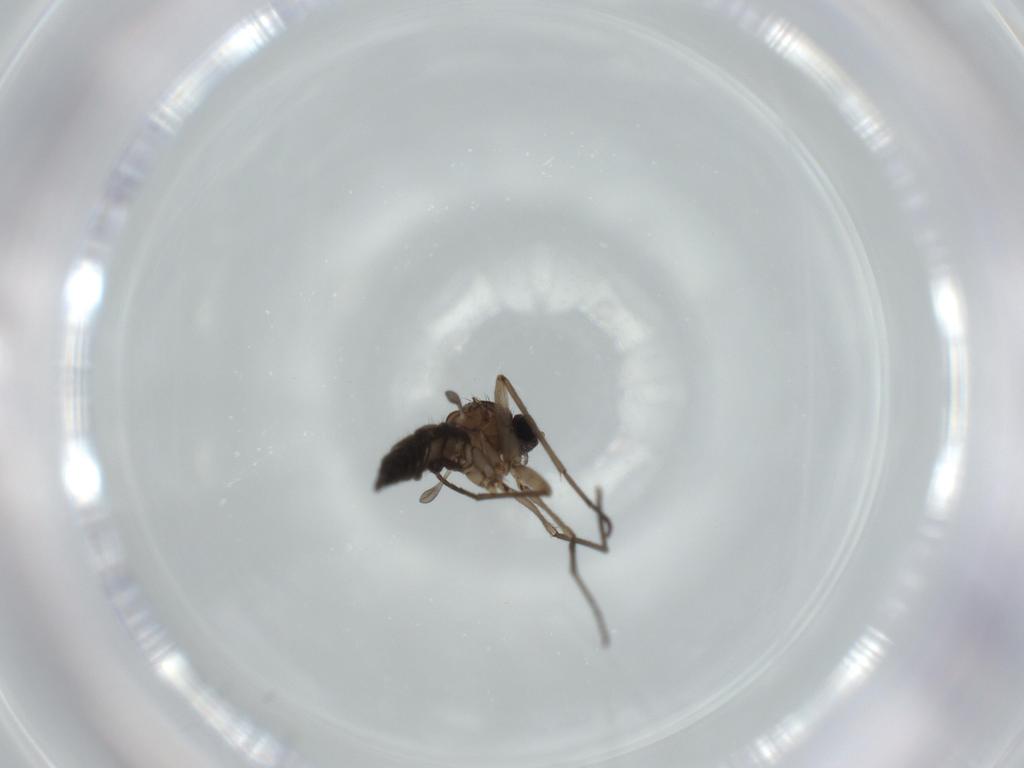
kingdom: Animalia
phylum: Arthropoda
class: Insecta
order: Diptera
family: Sciaridae
